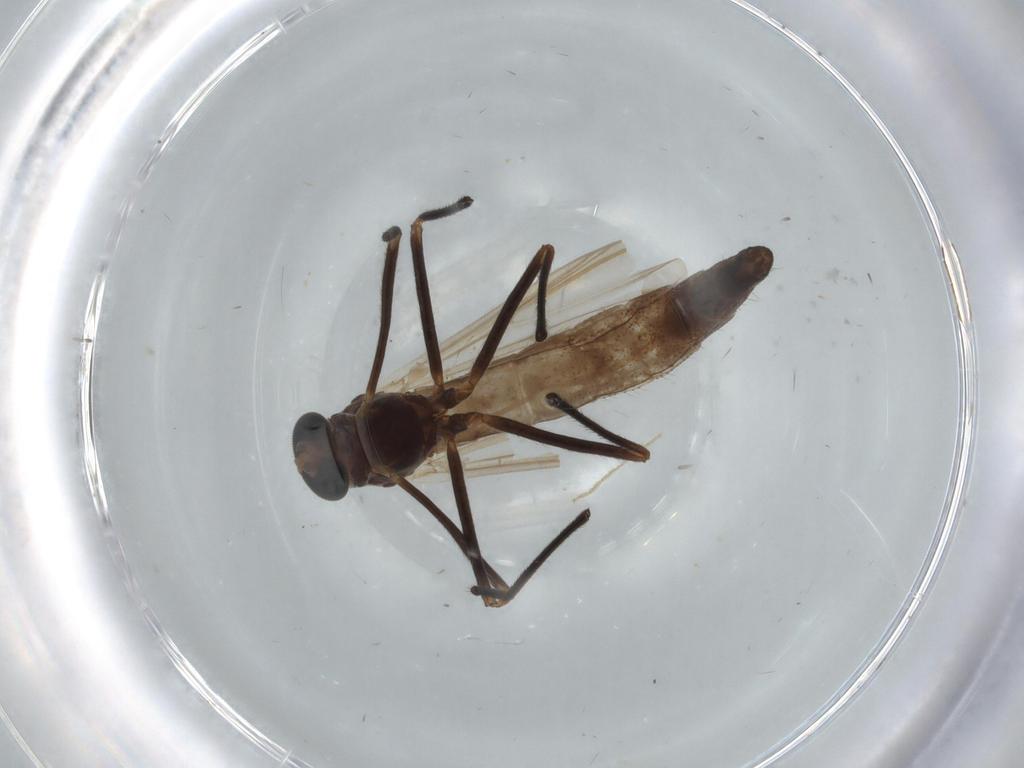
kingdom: Animalia
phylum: Arthropoda
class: Insecta
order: Diptera
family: Chironomidae
